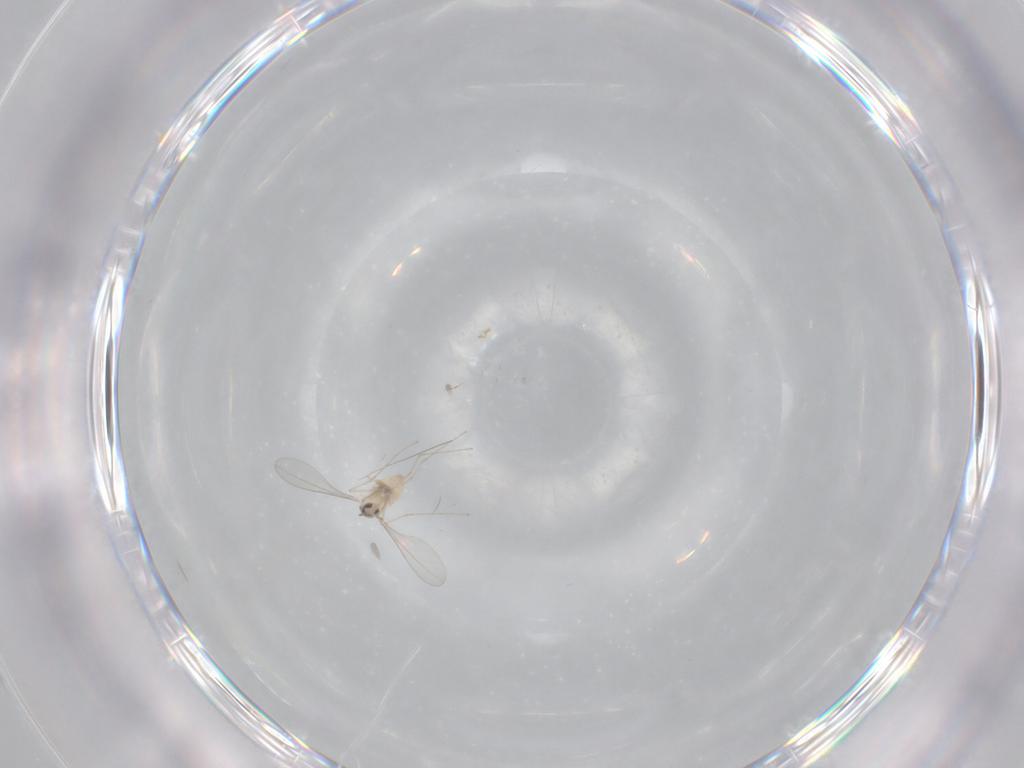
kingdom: Animalia
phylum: Arthropoda
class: Insecta
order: Diptera
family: Cecidomyiidae
